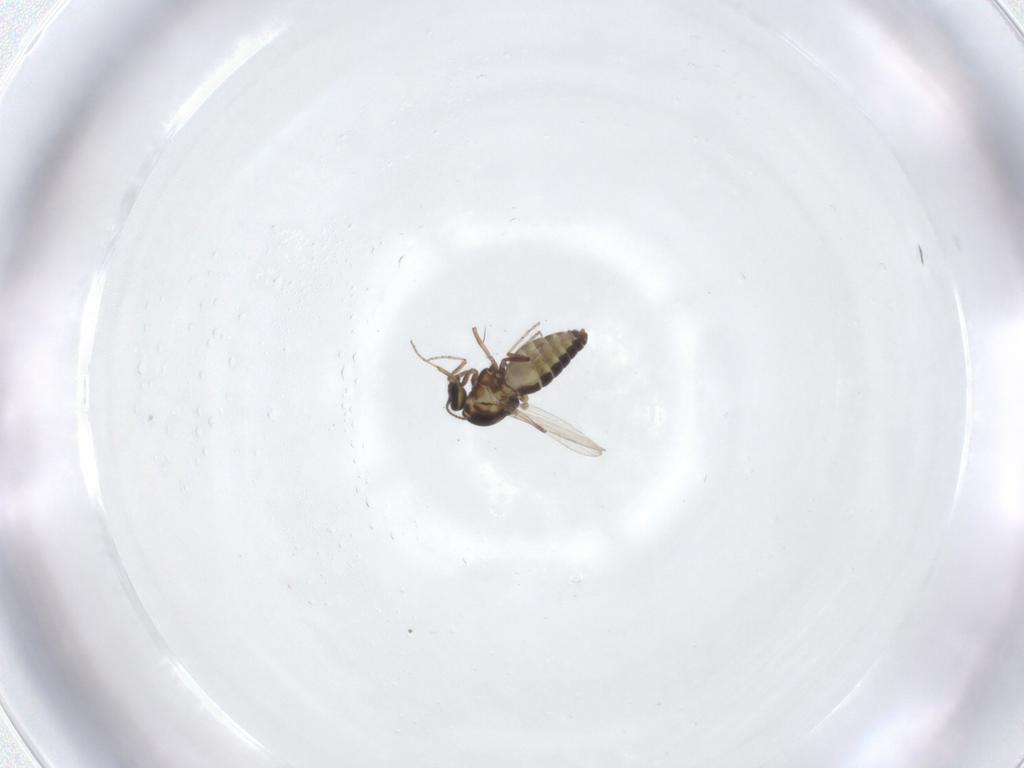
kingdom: Animalia
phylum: Arthropoda
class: Insecta
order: Diptera
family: Ceratopogonidae
